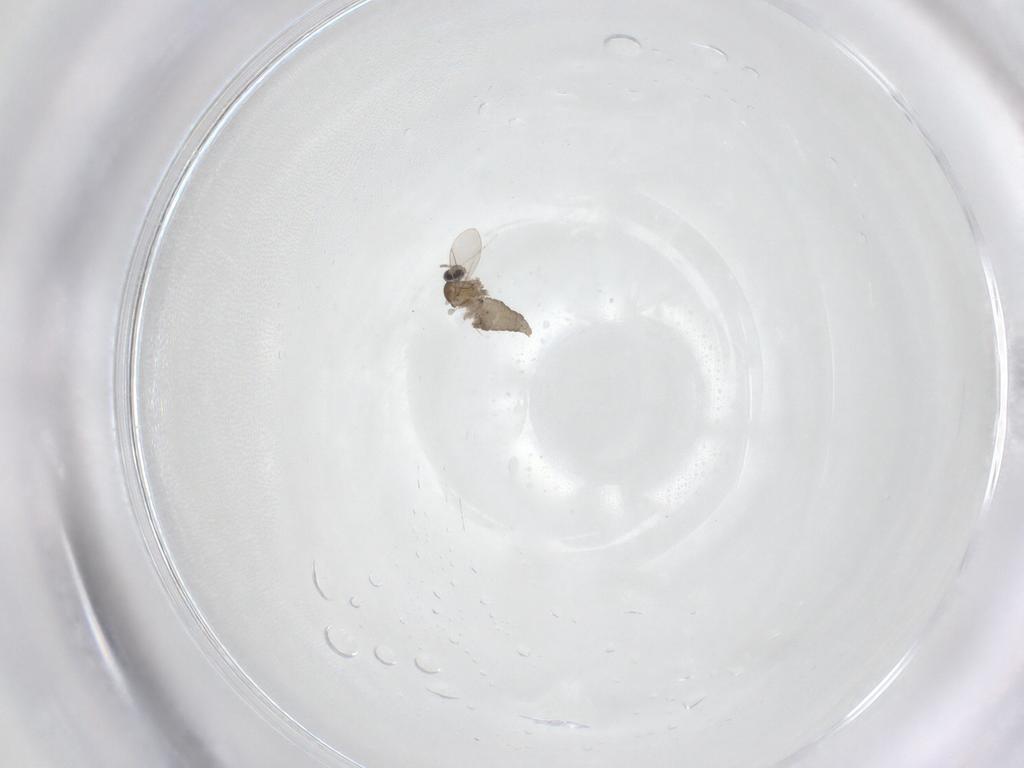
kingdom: Animalia
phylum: Arthropoda
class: Insecta
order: Diptera
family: Cecidomyiidae
